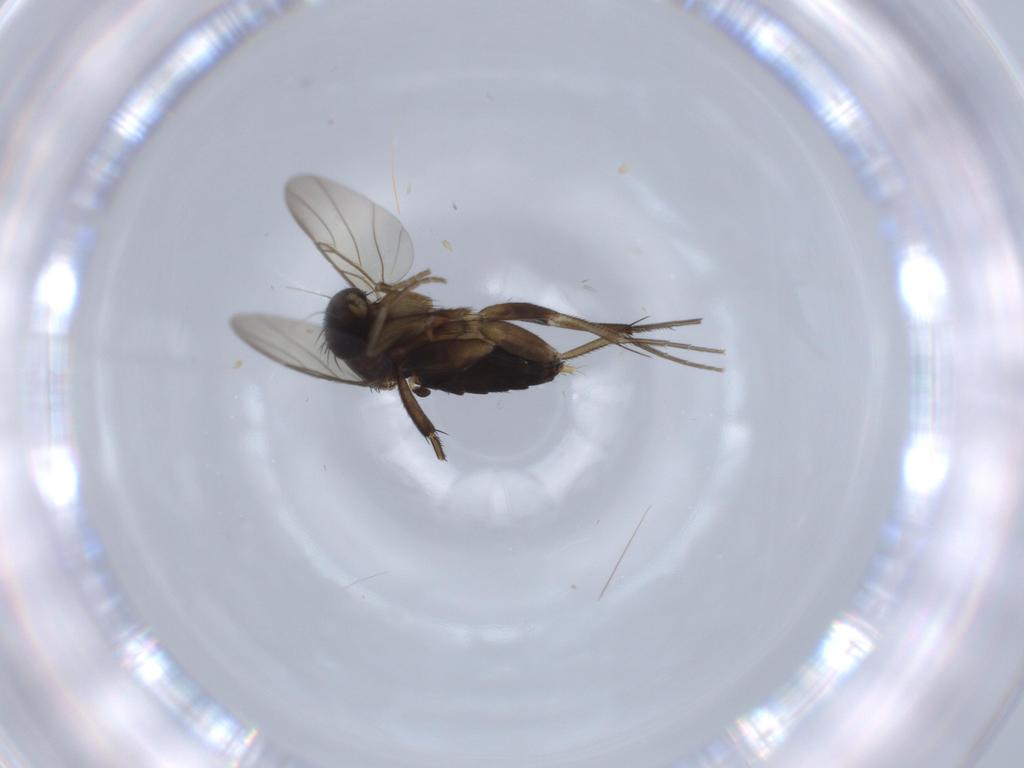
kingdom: Animalia
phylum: Arthropoda
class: Insecta
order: Diptera
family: Phoridae
